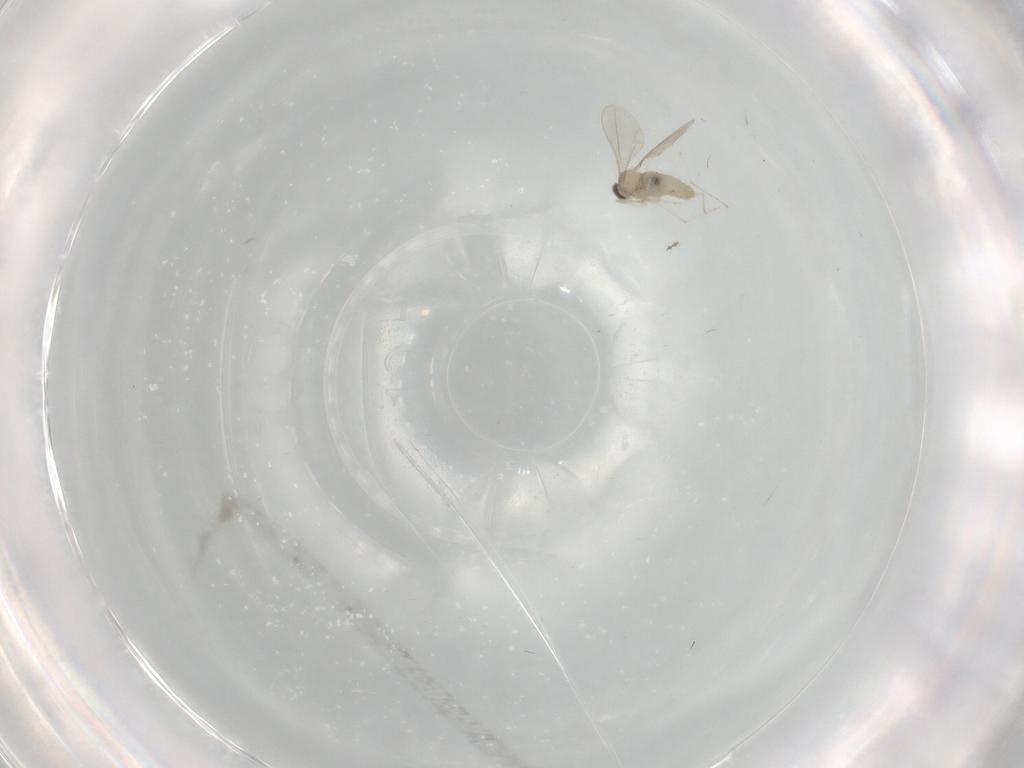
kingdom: Animalia
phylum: Arthropoda
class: Insecta
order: Diptera
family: Cecidomyiidae
